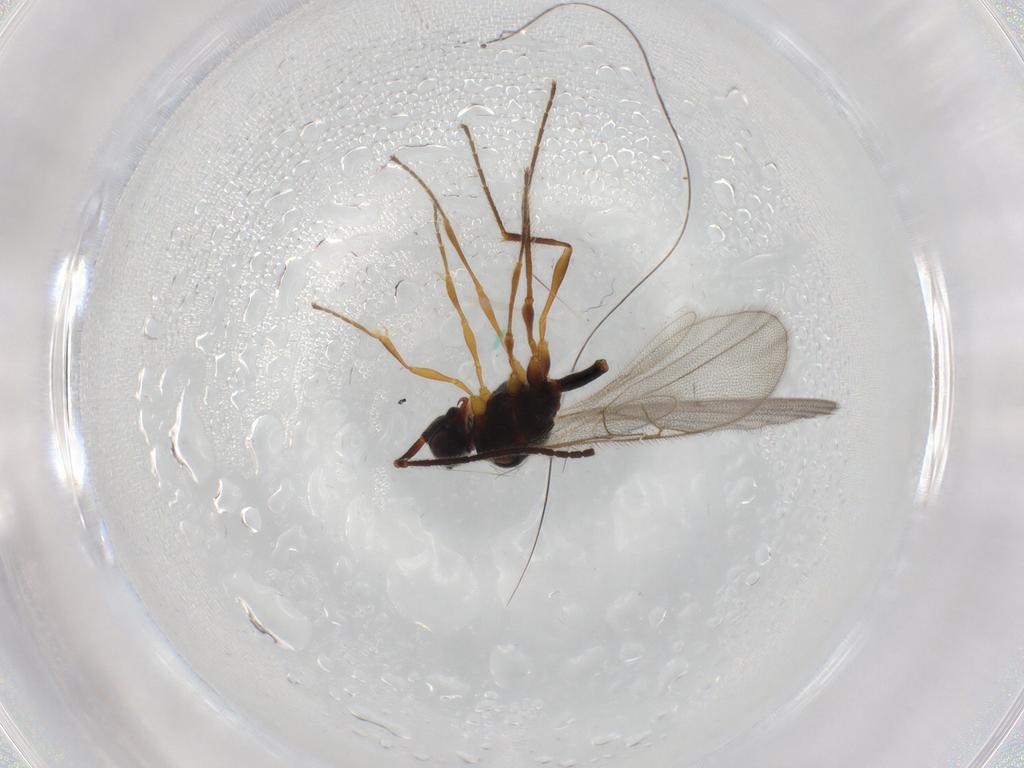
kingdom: Animalia
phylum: Arthropoda
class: Insecta
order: Hymenoptera
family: Diapriidae
